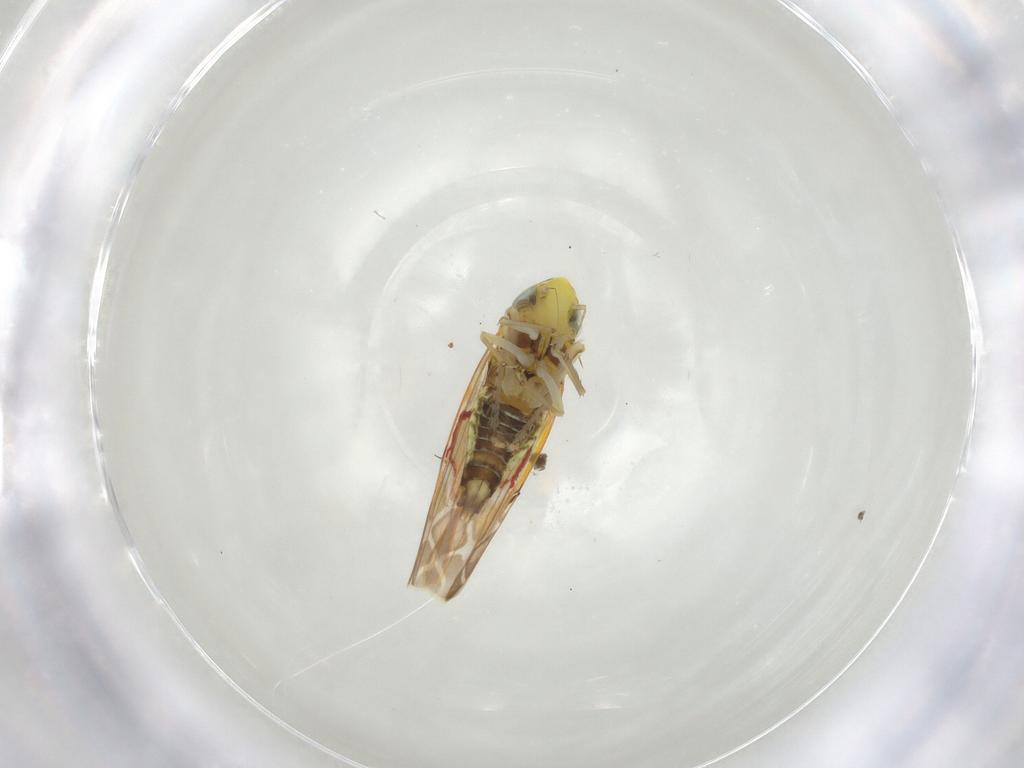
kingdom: Animalia
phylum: Arthropoda
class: Insecta
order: Hemiptera
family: Cicadellidae
